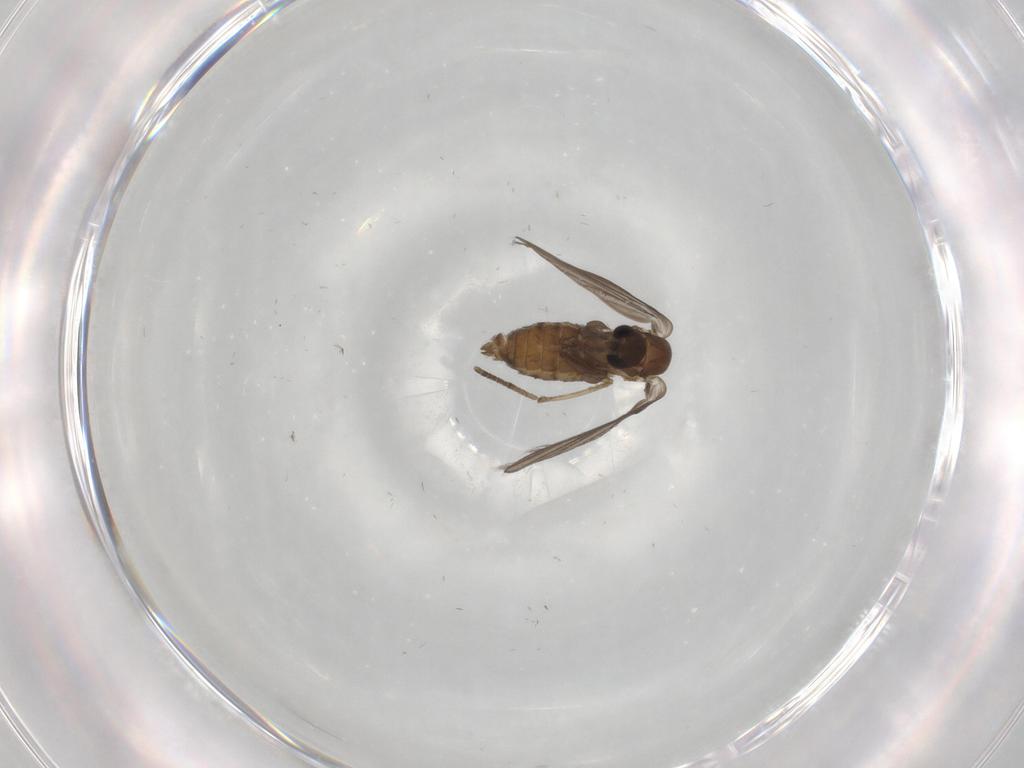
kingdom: Animalia
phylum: Arthropoda
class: Insecta
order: Diptera
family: Psychodidae
